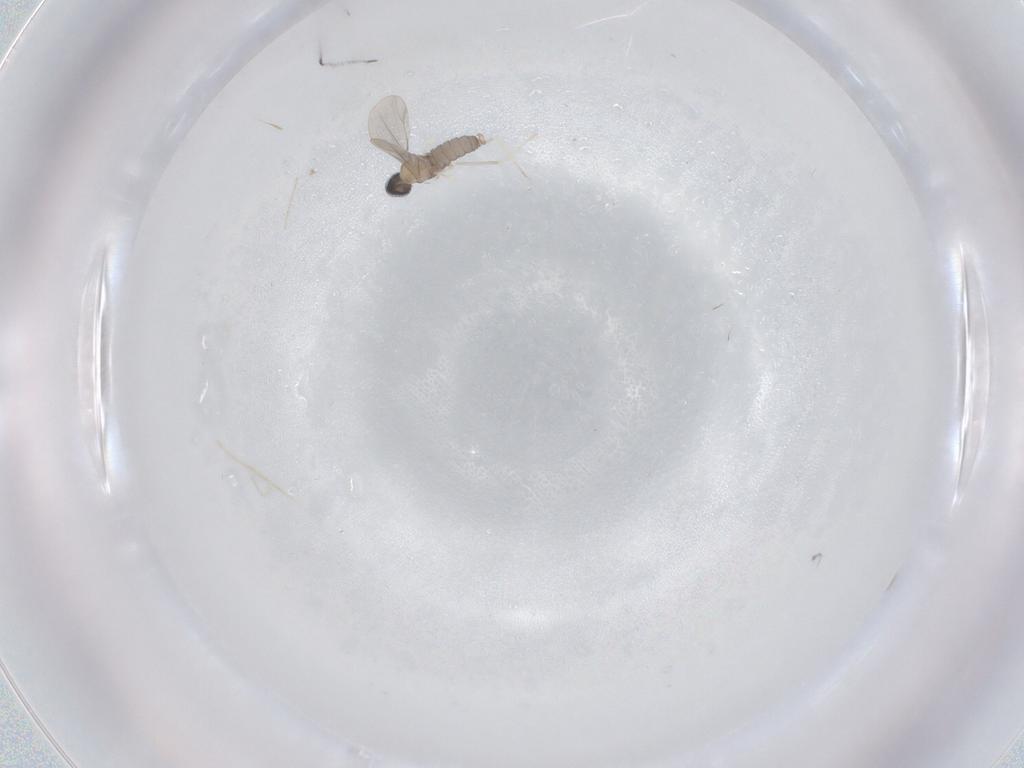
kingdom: Animalia
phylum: Arthropoda
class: Insecta
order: Diptera
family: Cecidomyiidae
